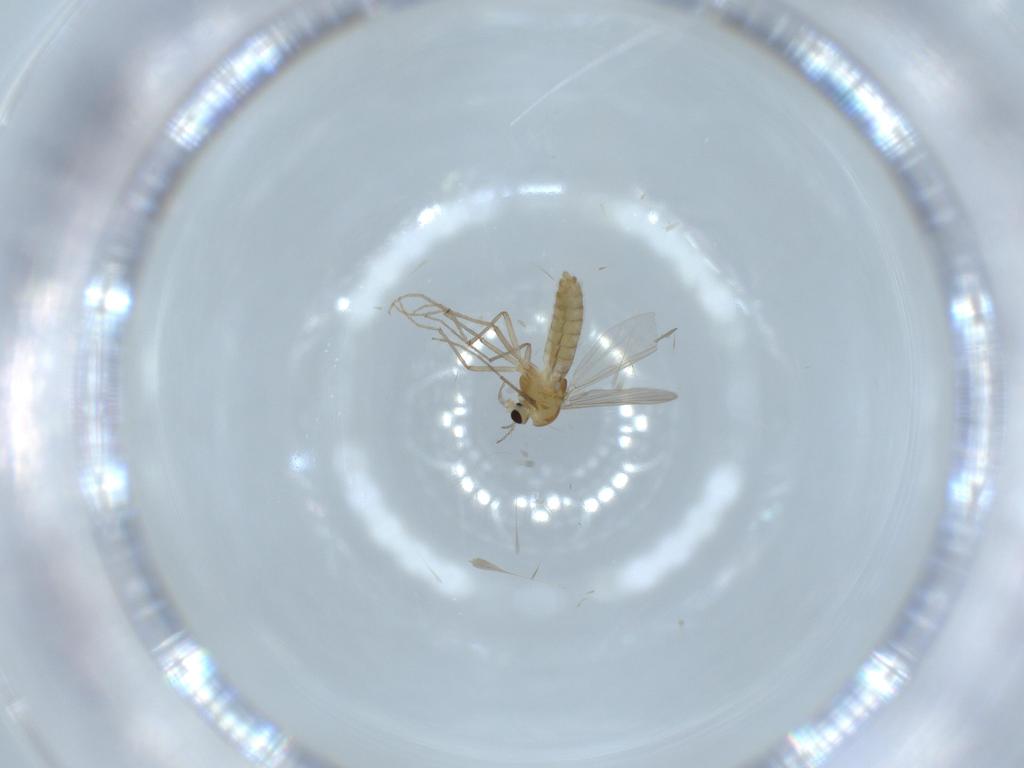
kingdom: Animalia
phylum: Arthropoda
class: Insecta
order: Diptera
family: Chironomidae
